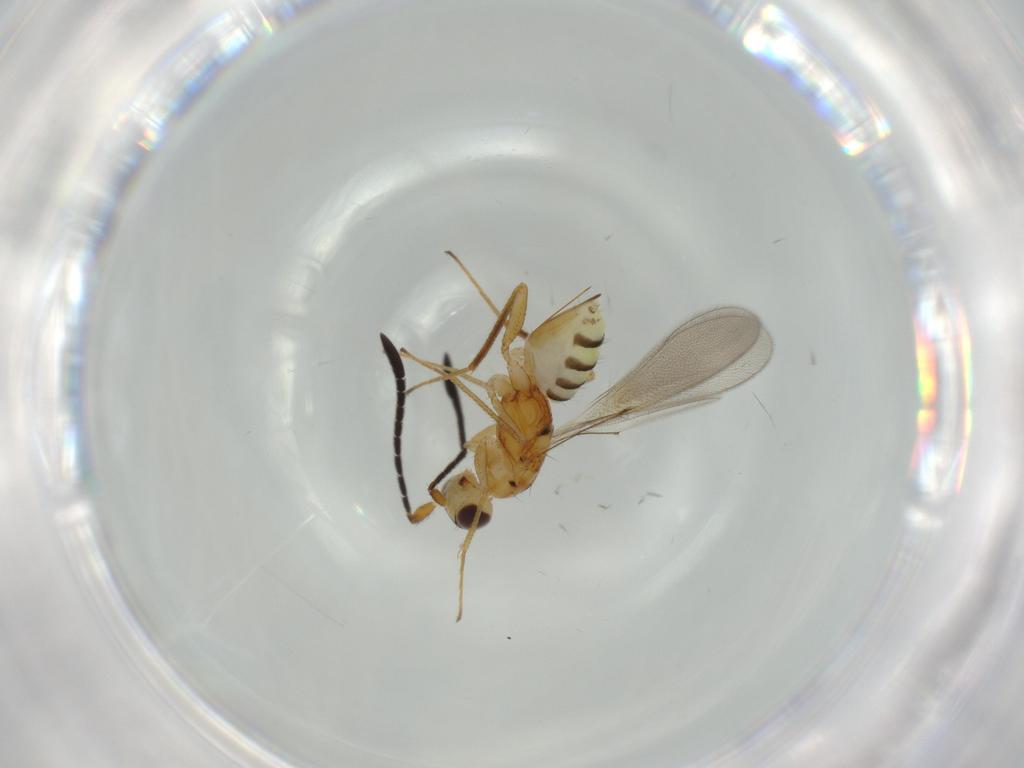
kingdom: Animalia
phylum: Arthropoda
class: Insecta
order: Hymenoptera
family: Mymaridae
